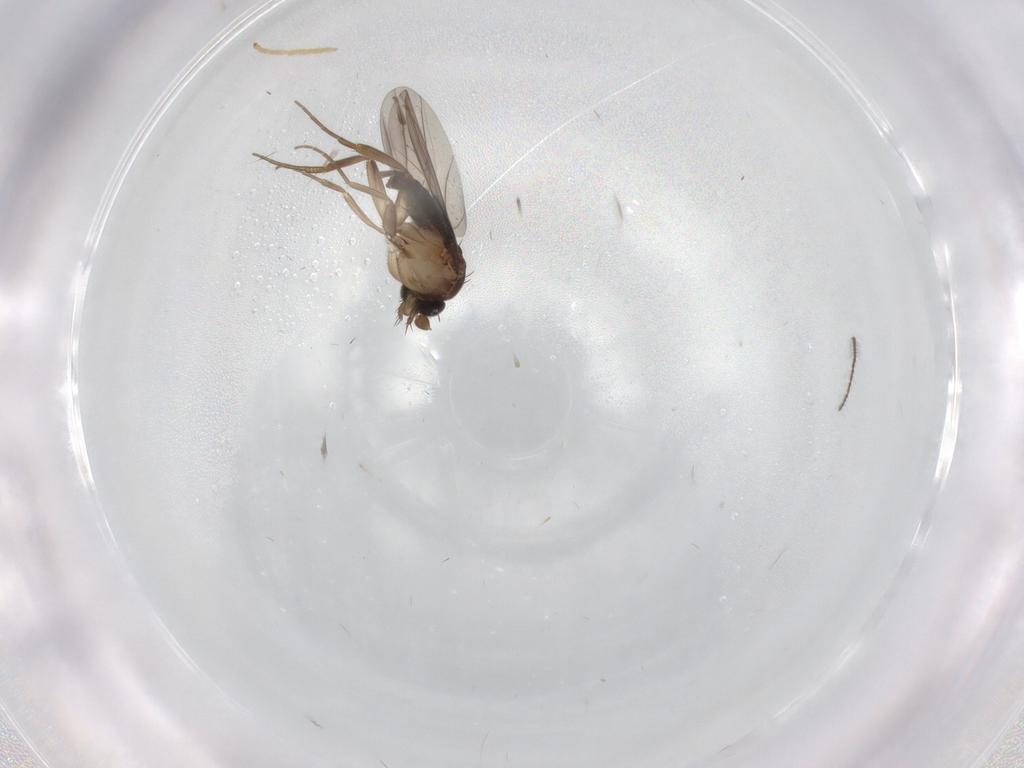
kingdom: Animalia
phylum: Arthropoda
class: Insecta
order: Diptera
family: Phoridae
